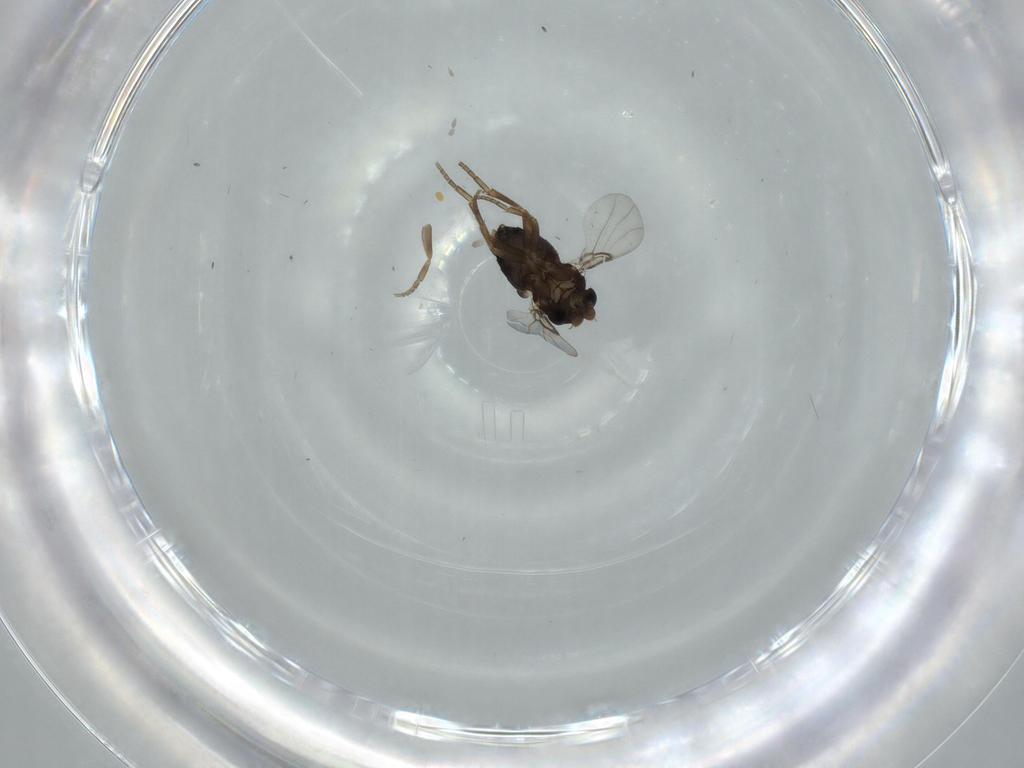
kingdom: Animalia
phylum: Arthropoda
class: Insecta
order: Diptera
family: Phoridae
